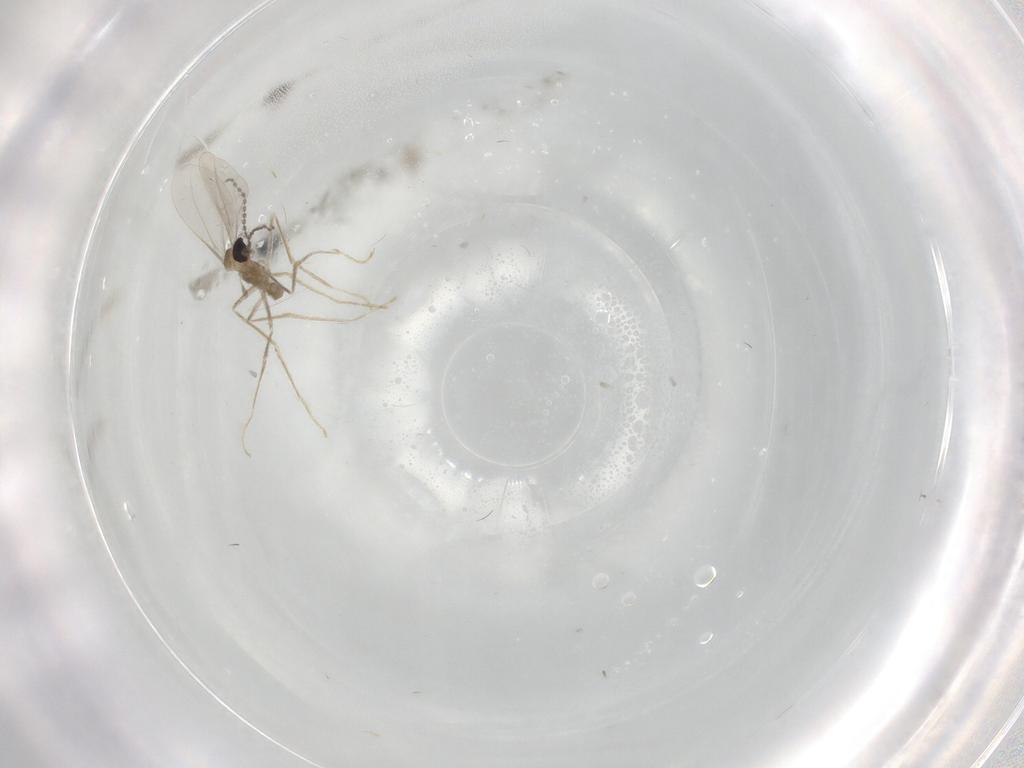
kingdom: Animalia
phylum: Arthropoda
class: Insecta
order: Diptera
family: Cecidomyiidae
